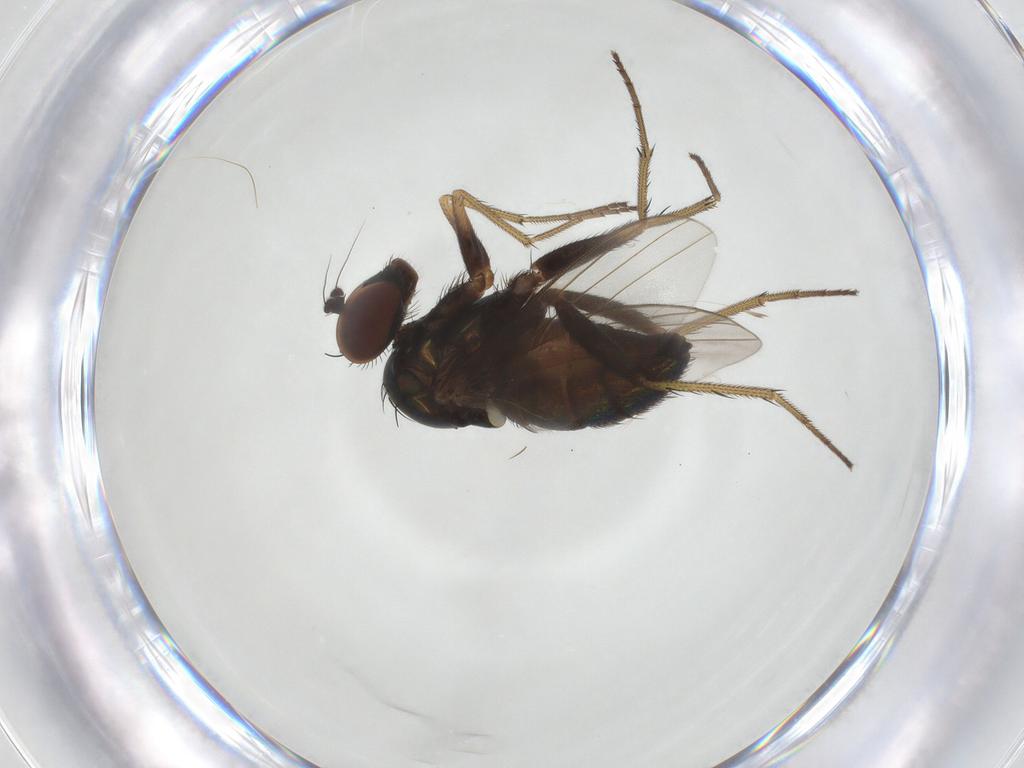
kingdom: Animalia
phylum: Arthropoda
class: Insecta
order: Diptera
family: Dolichopodidae
